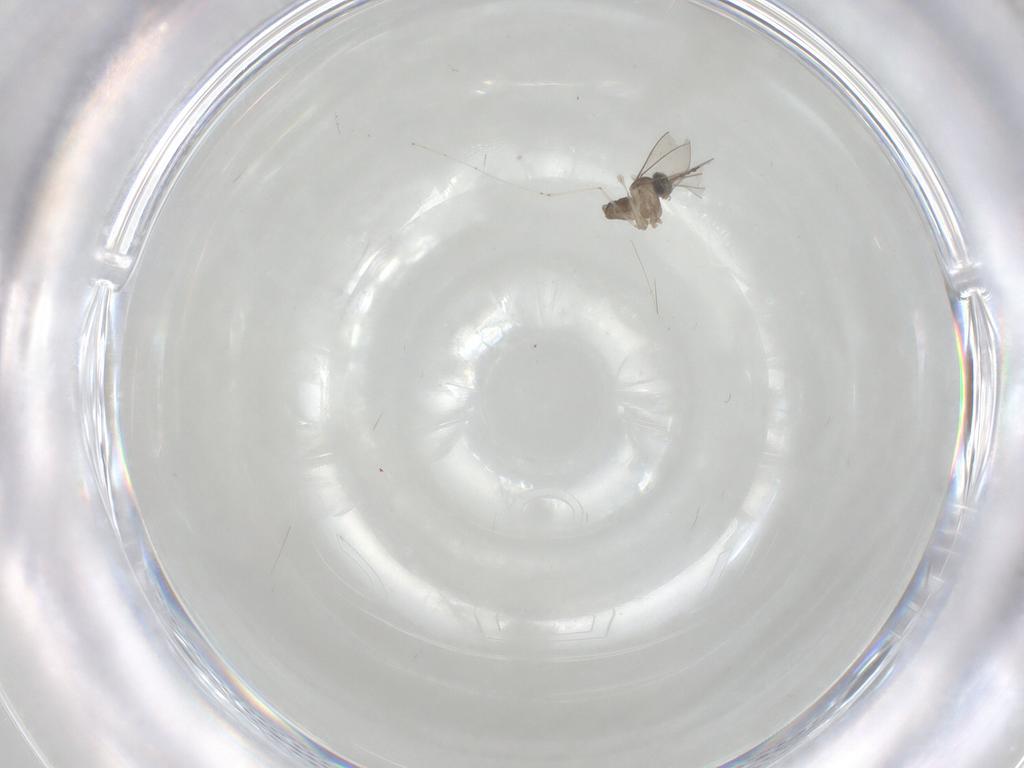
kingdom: Animalia
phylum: Arthropoda
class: Insecta
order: Diptera
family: Cecidomyiidae
